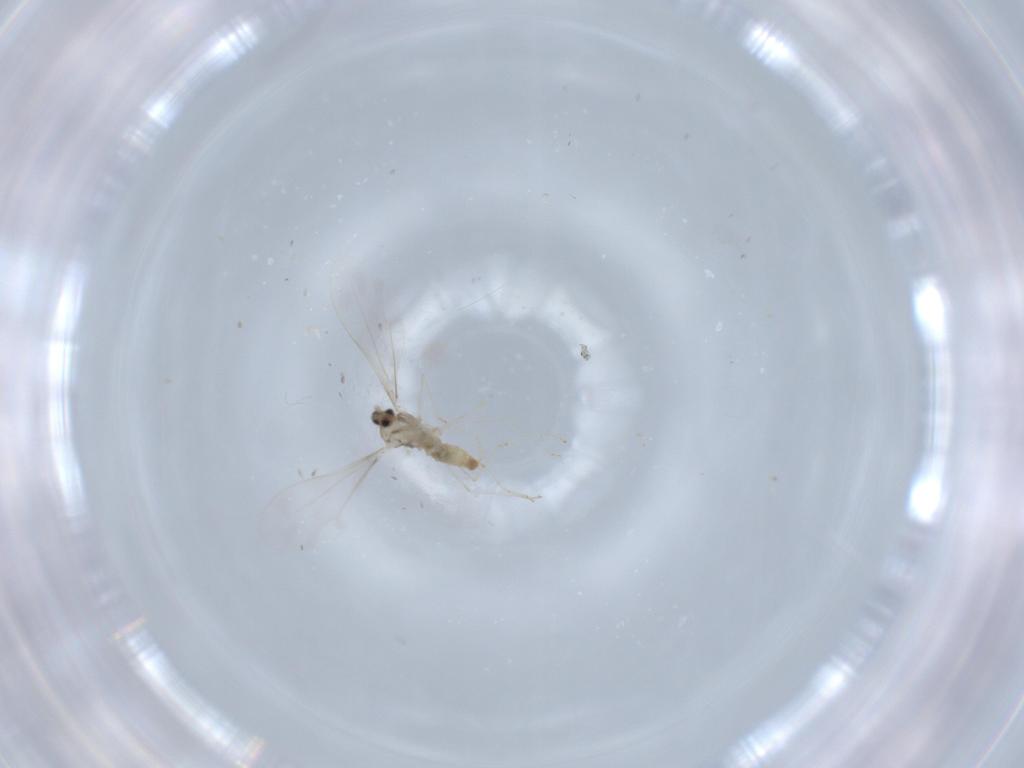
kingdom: Animalia
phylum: Arthropoda
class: Insecta
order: Diptera
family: Cecidomyiidae
